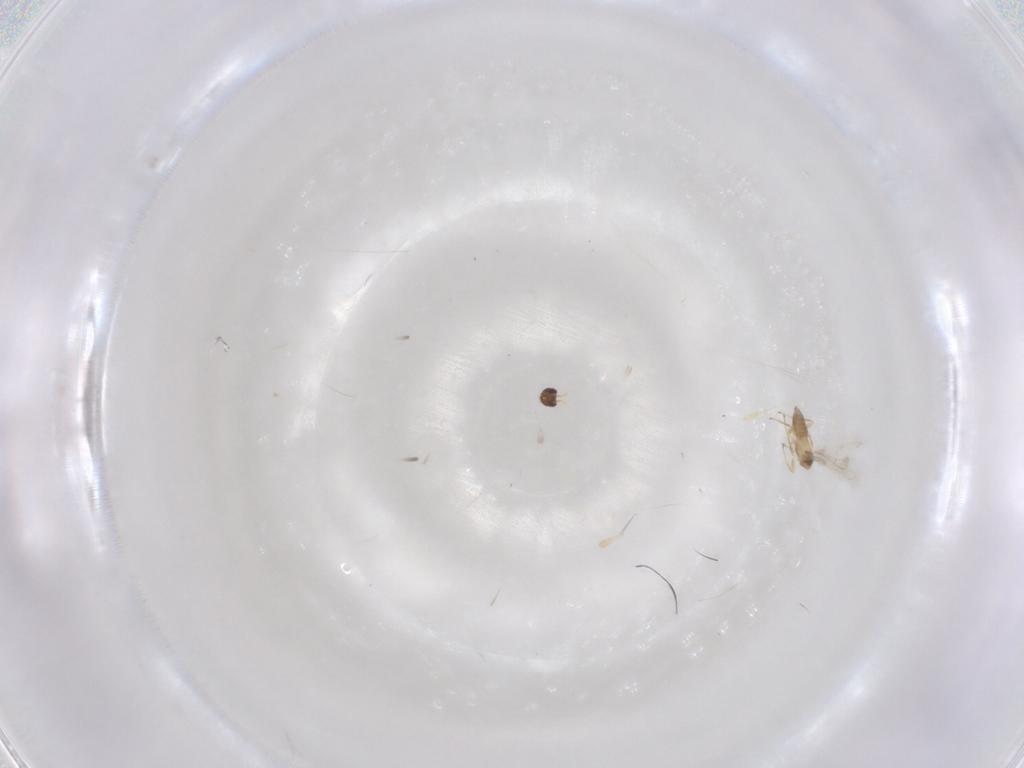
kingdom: Animalia
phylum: Arthropoda
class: Insecta
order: Hymenoptera
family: Mymaridae
